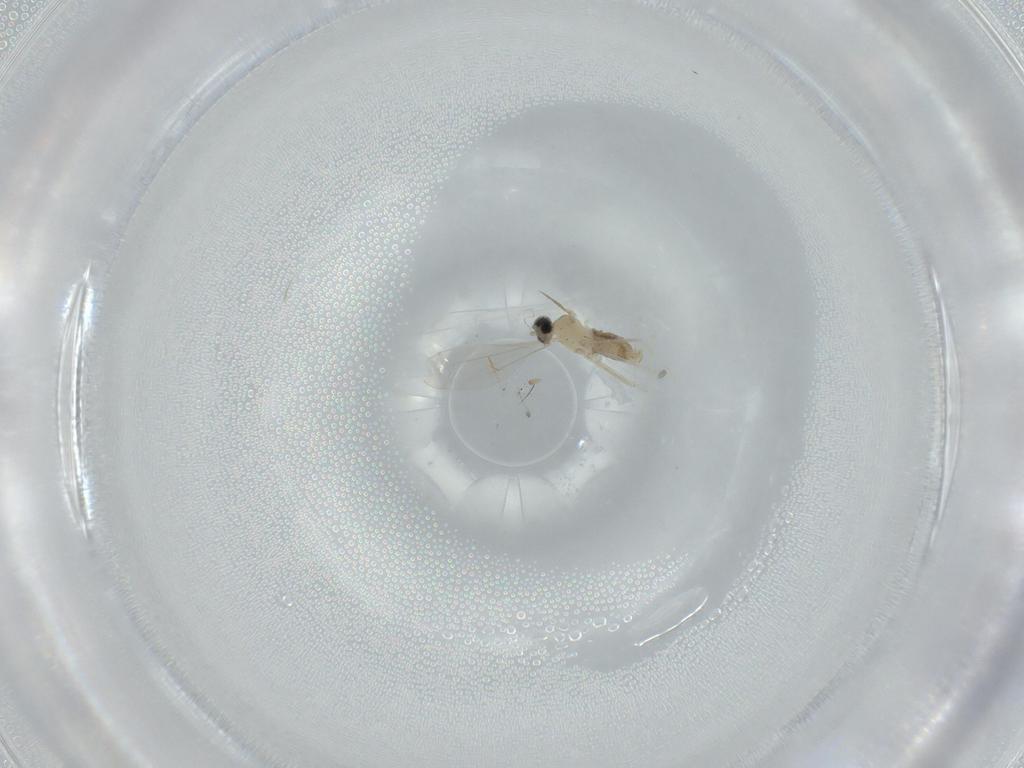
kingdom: Animalia
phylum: Arthropoda
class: Insecta
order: Diptera
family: Cecidomyiidae
